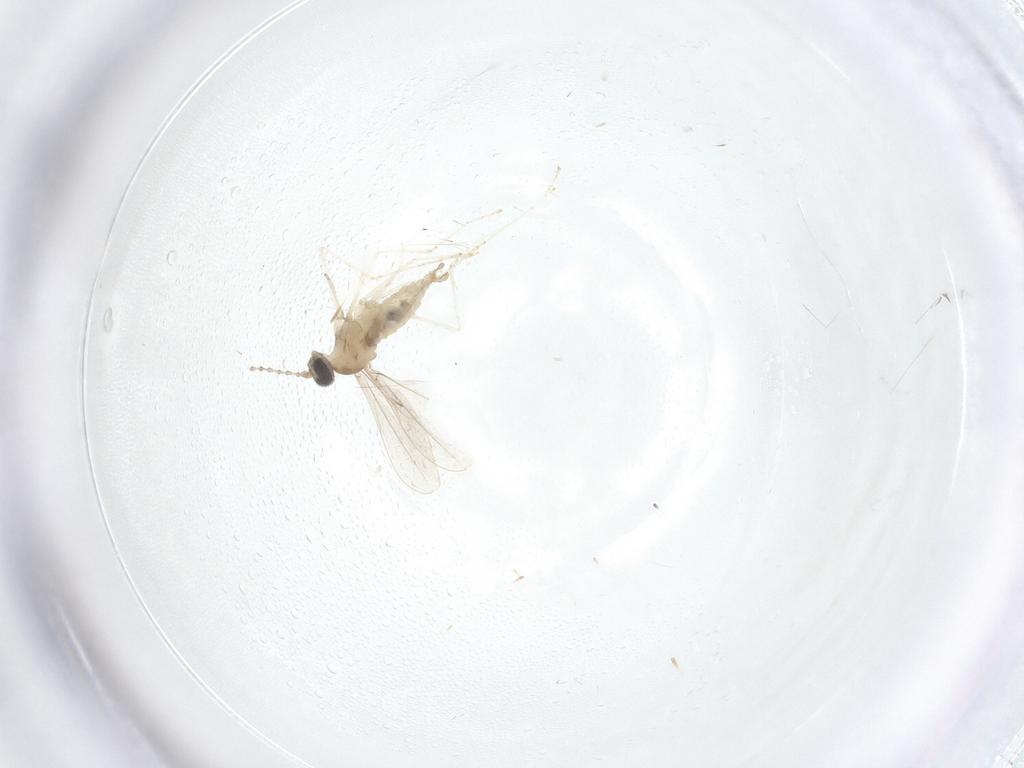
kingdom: Animalia
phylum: Arthropoda
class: Insecta
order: Diptera
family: Cecidomyiidae
